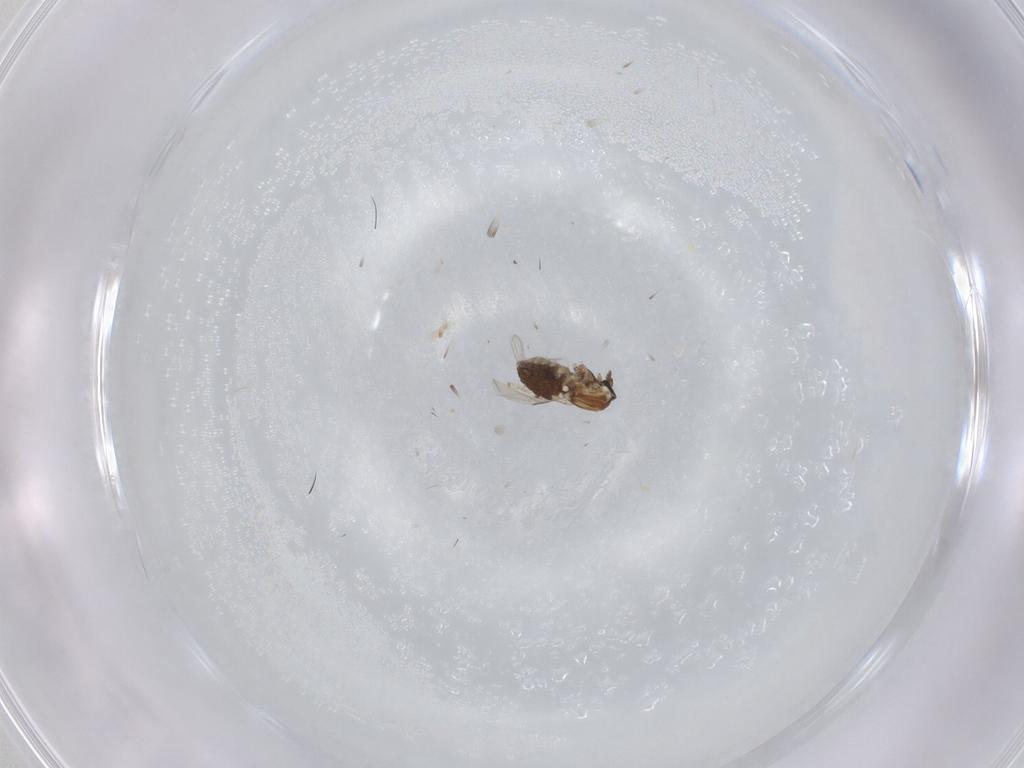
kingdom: Animalia
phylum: Arthropoda
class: Insecta
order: Diptera
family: Ceratopogonidae
